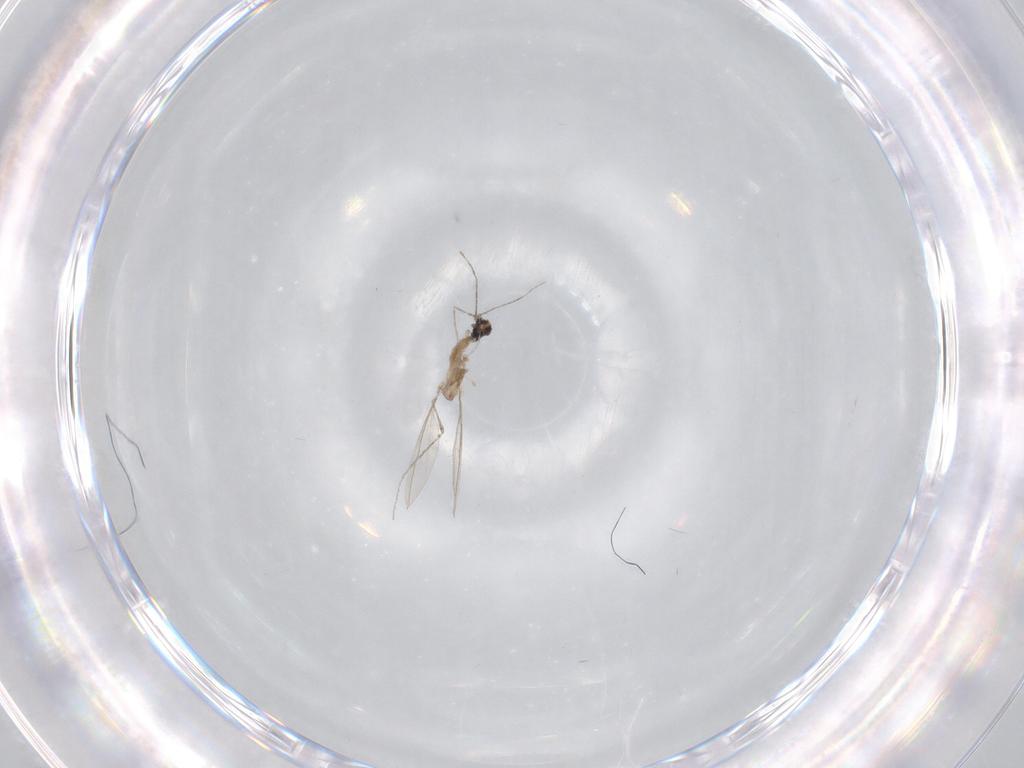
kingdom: Animalia
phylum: Arthropoda
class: Insecta
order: Diptera
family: Cecidomyiidae
